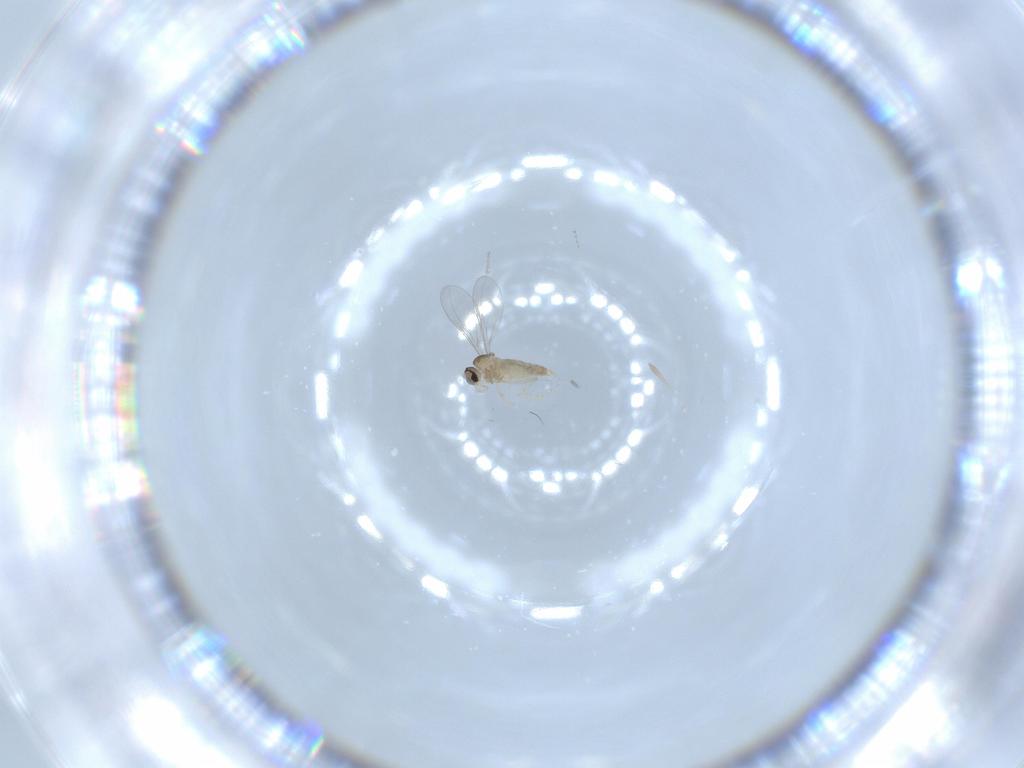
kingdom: Animalia
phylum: Arthropoda
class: Insecta
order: Diptera
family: Cecidomyiidae
